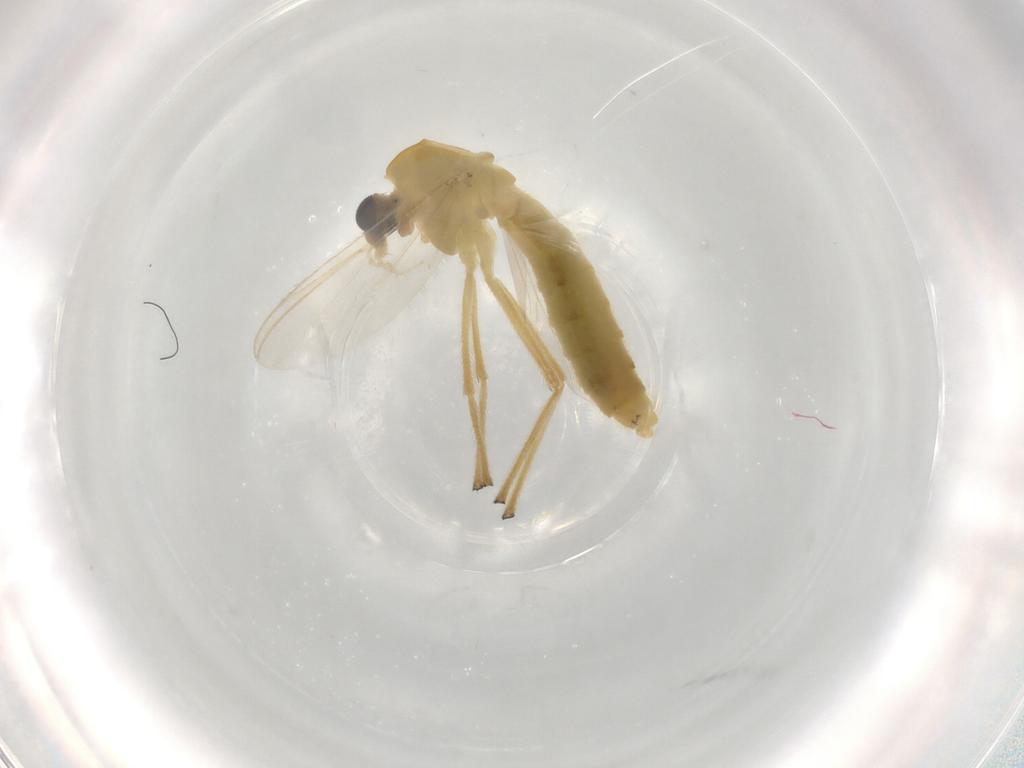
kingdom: Animalia
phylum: Arthropoda
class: Insecta
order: Diptera
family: Chironomidae
